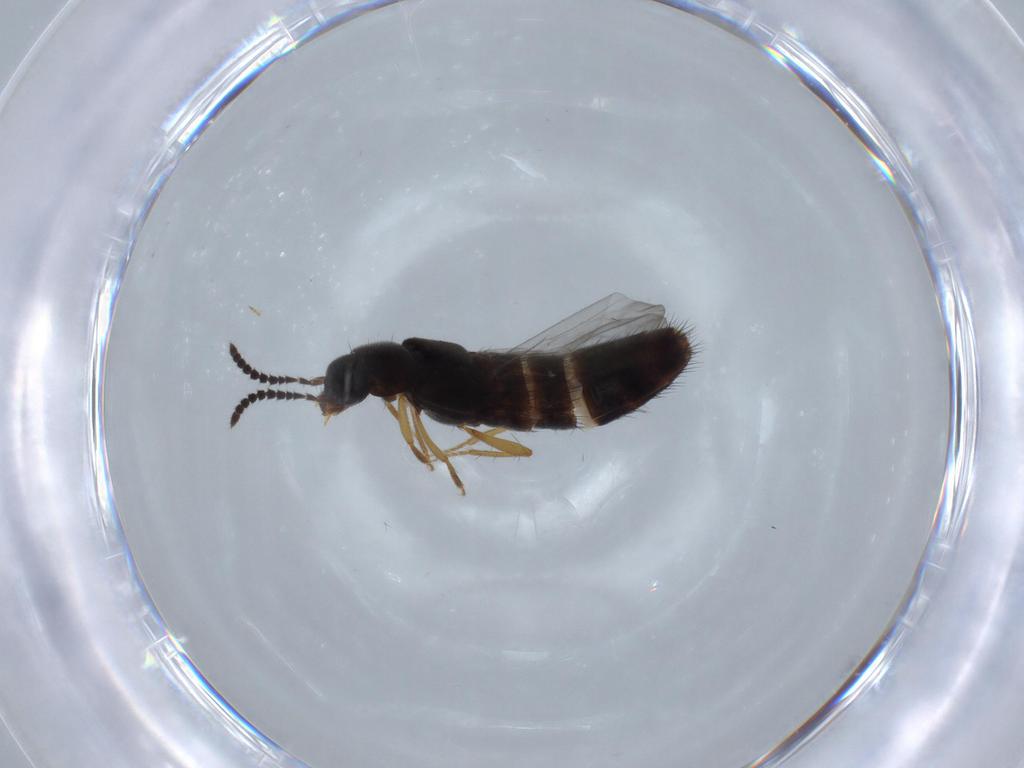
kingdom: Animalia
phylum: Arthropoda
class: Insecta
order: Coleoptera
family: Staphylinidae
